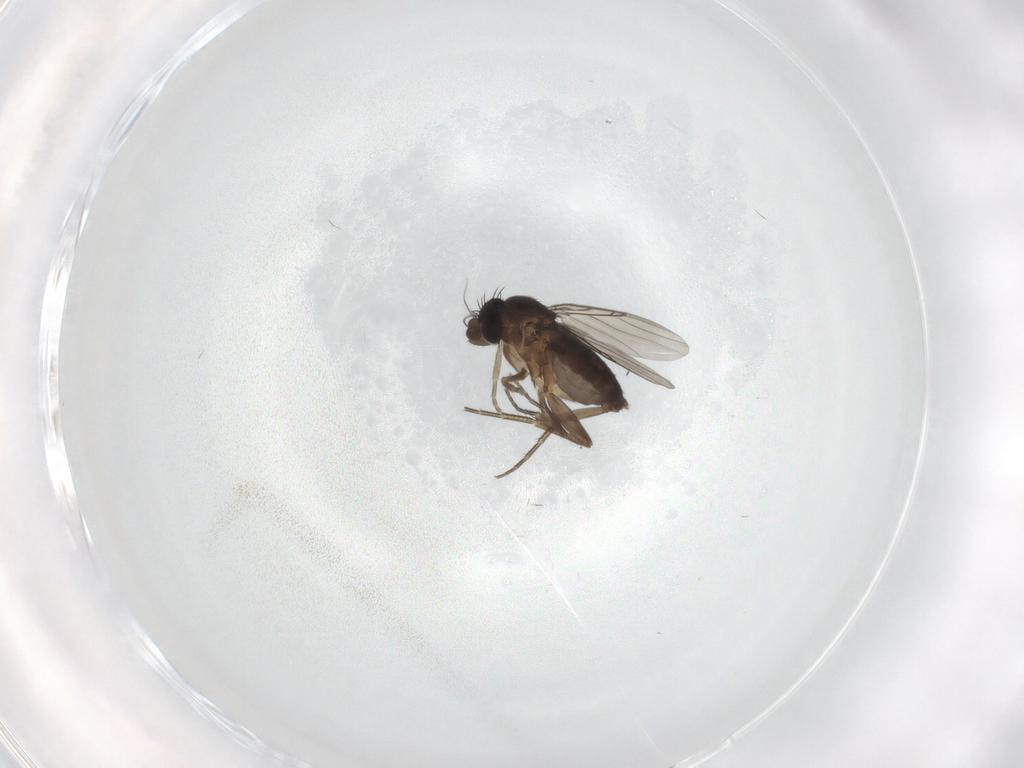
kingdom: Animalia
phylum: Arthropoda
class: Insecta
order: Diptera
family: Phoridae
